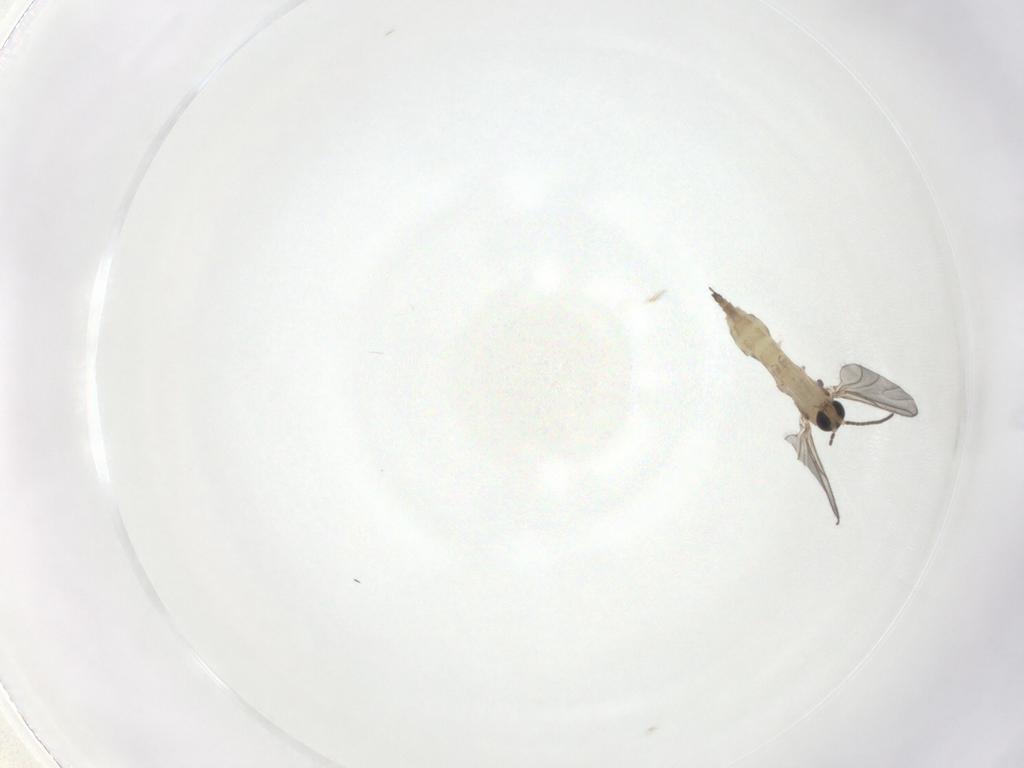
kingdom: Animalia
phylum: Arthropoda
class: Insecta
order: Diptera
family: Sciaridae
